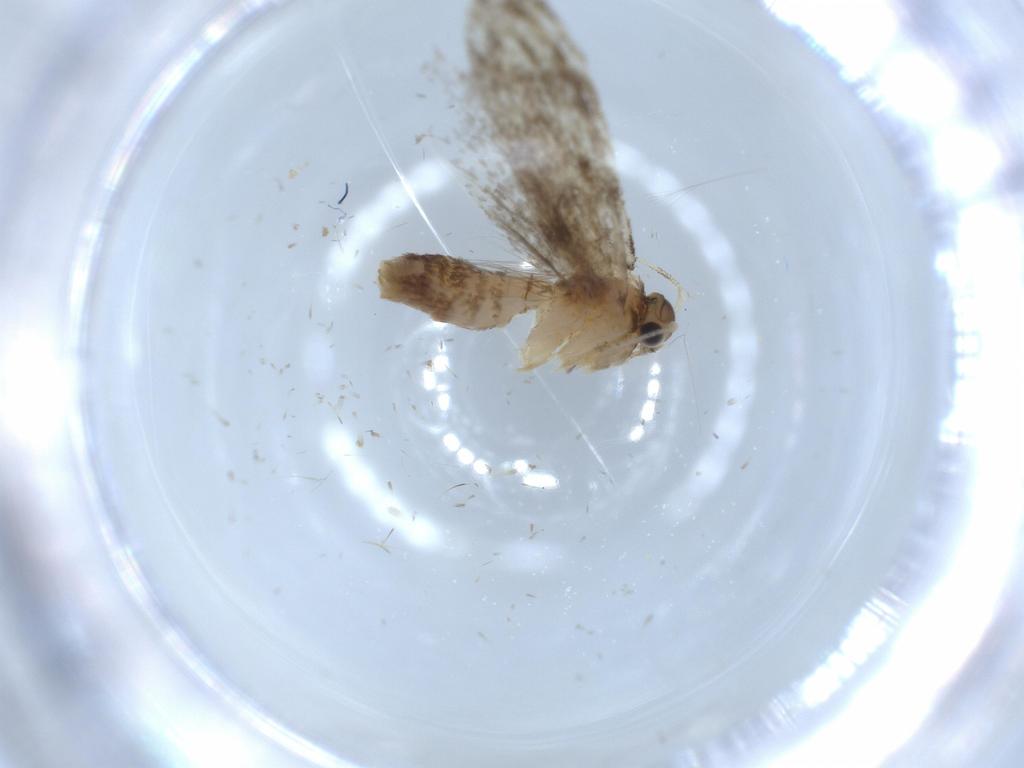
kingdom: Animalia
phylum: Arthropoda
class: Insecta
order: Lepidoptera
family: Tineidae
